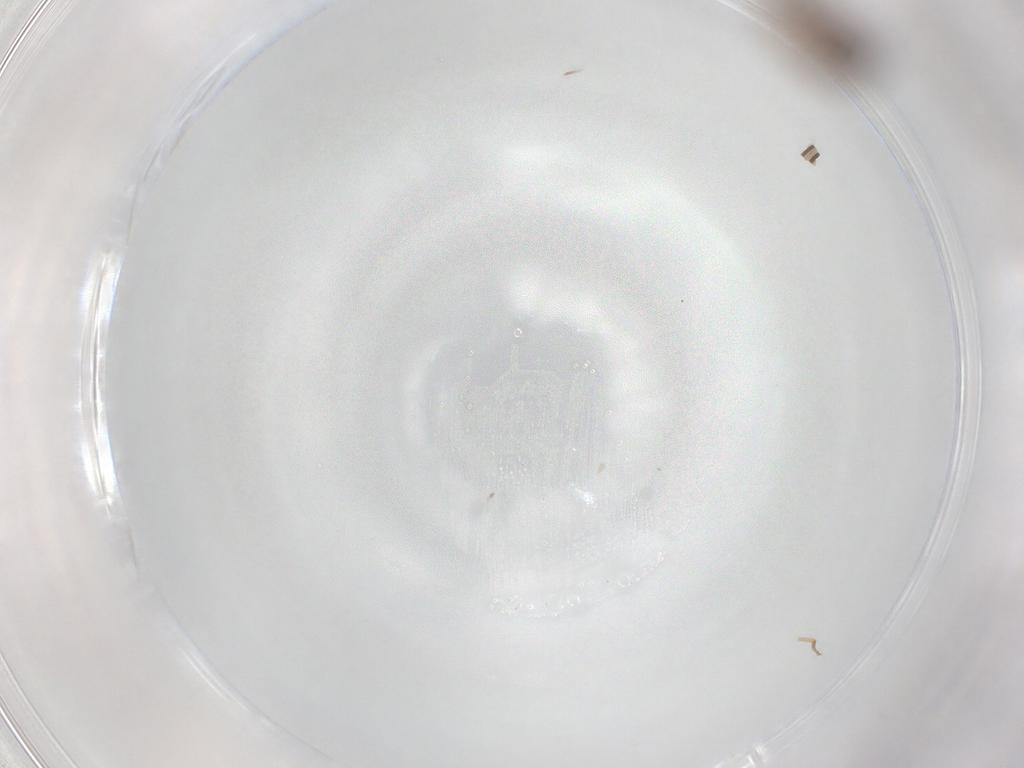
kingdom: Animalia
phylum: Arthropoda
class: Insecta
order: Diptera
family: Ceratopogonidae
